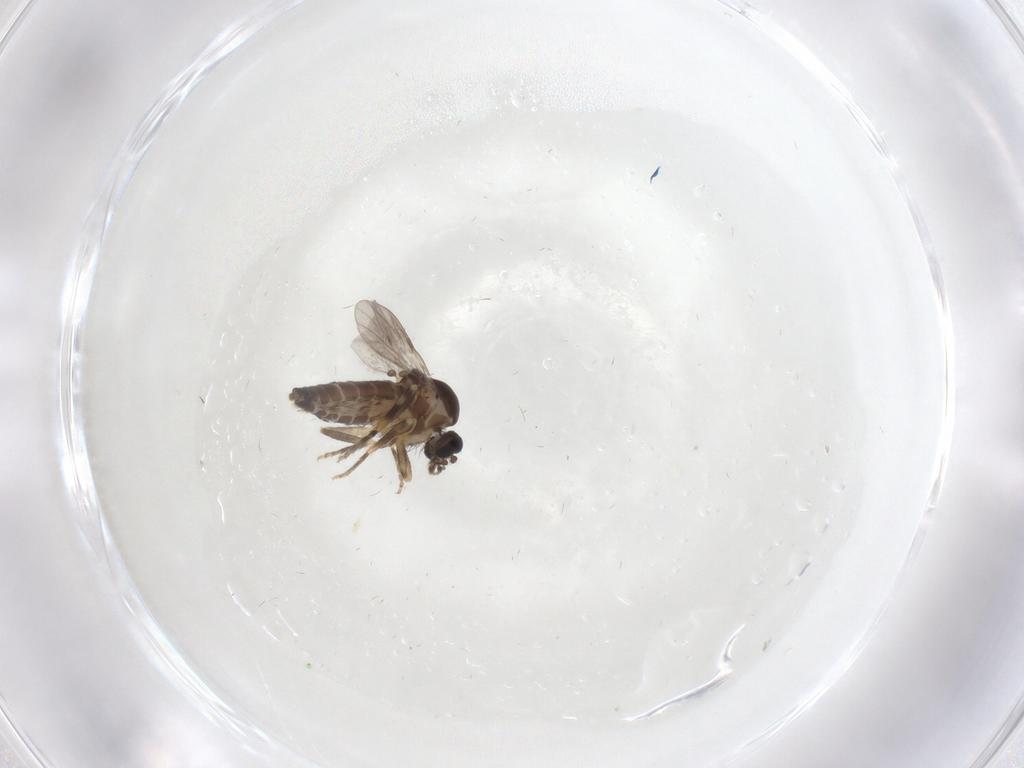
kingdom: Animalia
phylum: Arthropoda
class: Insecta
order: Diptera
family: Ceratopogonidae
